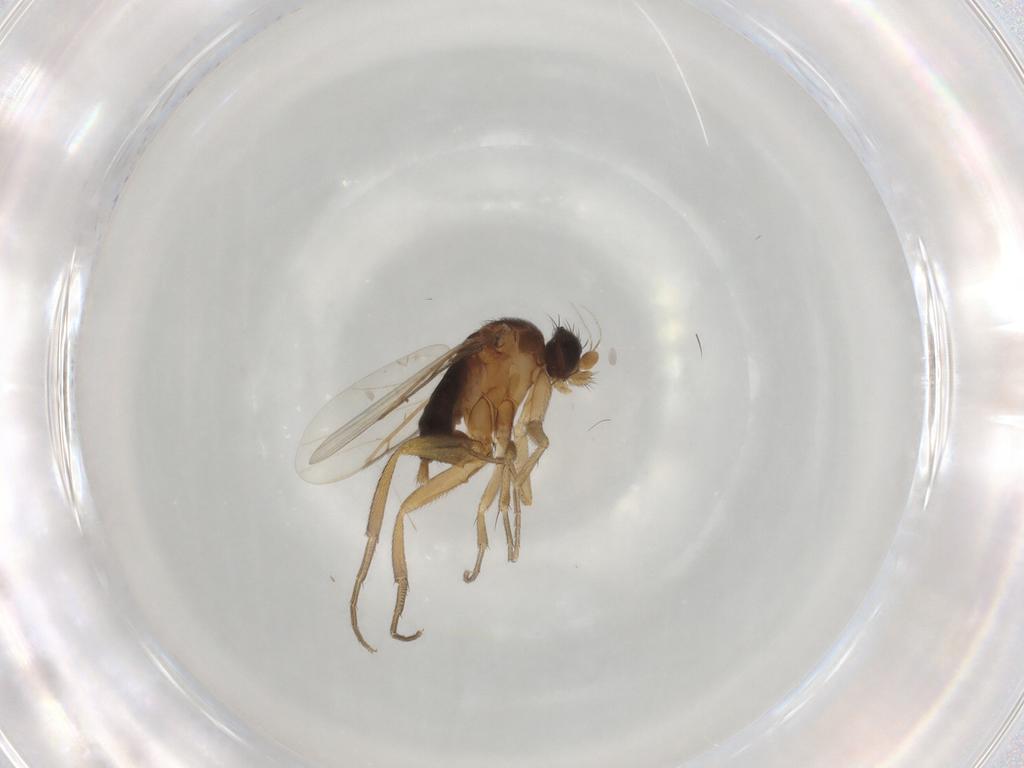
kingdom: Animalia
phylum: Arthropoda
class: Insecta
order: Diptera
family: Phoridae
